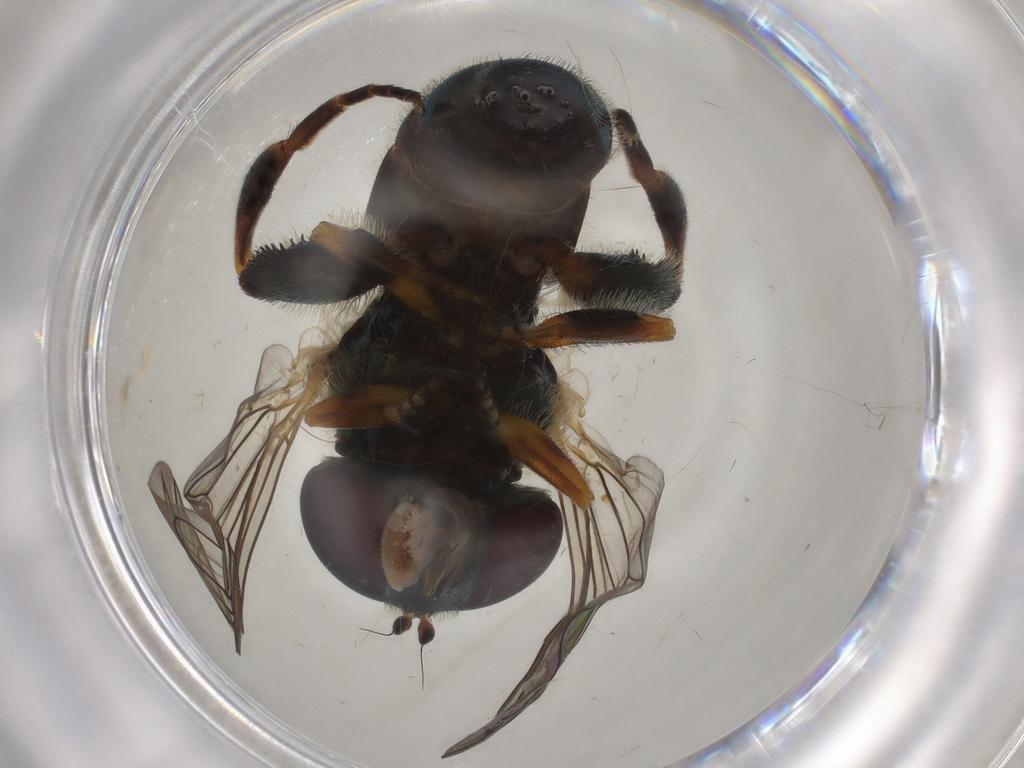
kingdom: Animalia
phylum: Arthropoda
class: Insecta
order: Diptera
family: Syrphidae
